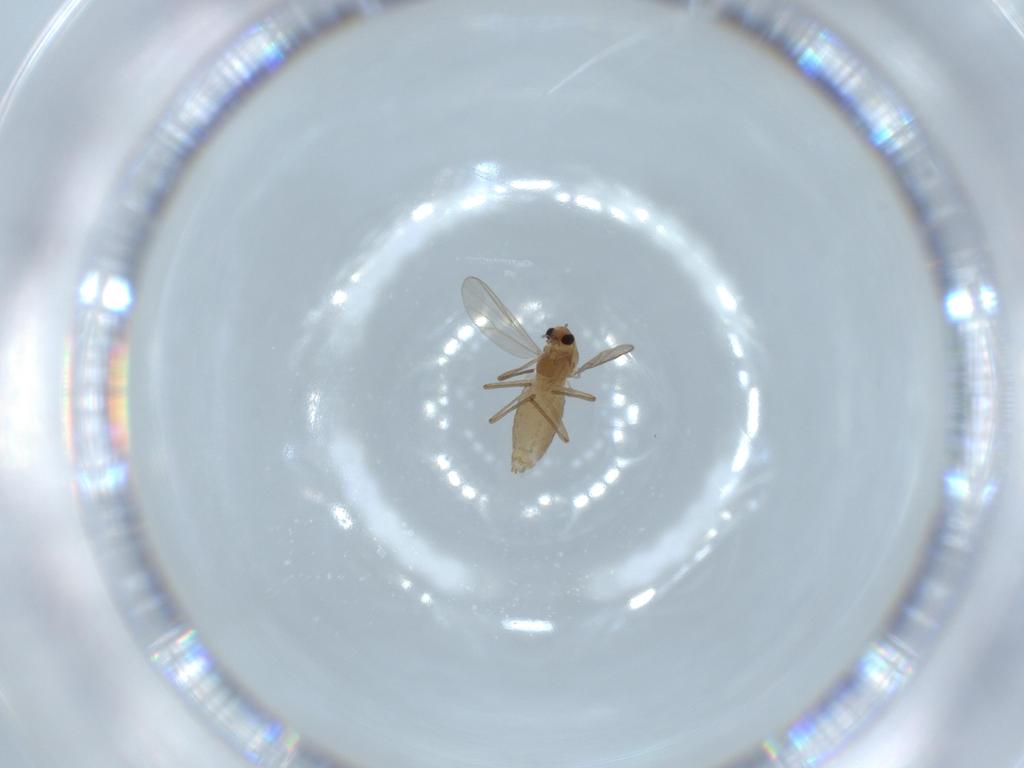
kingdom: Animalia
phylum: Arthropoda
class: Insecta
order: Diptera
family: Chironomidae
